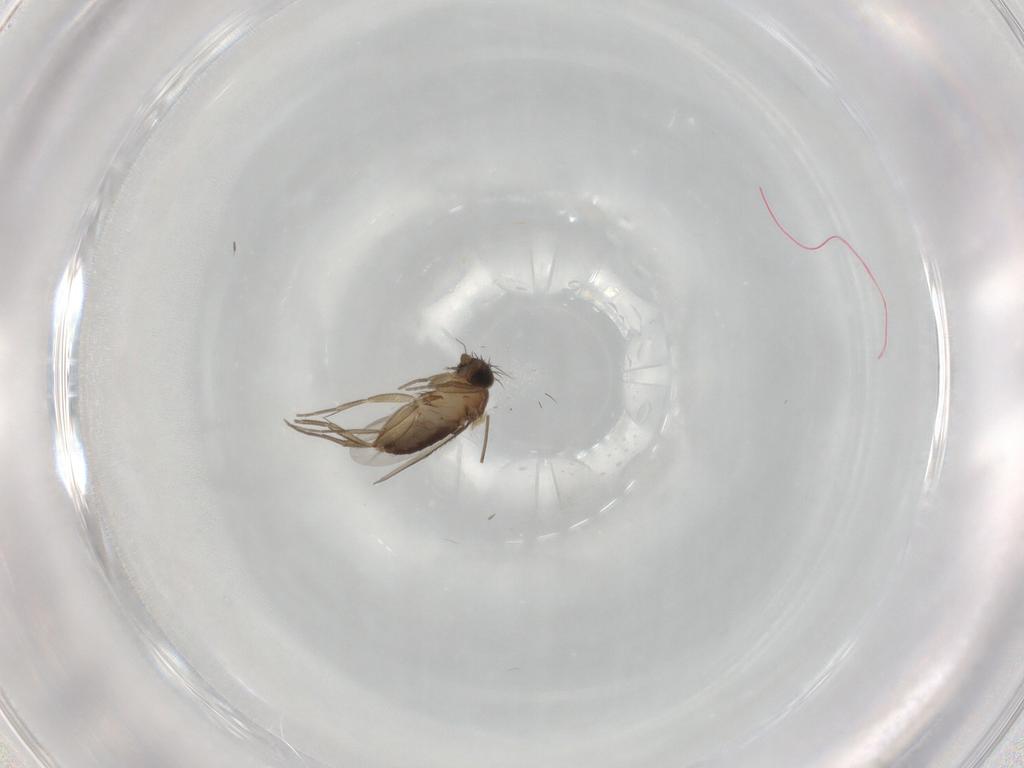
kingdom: Animalia
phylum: Arthropoda
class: Insecta
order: Diptera
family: Phoridae
